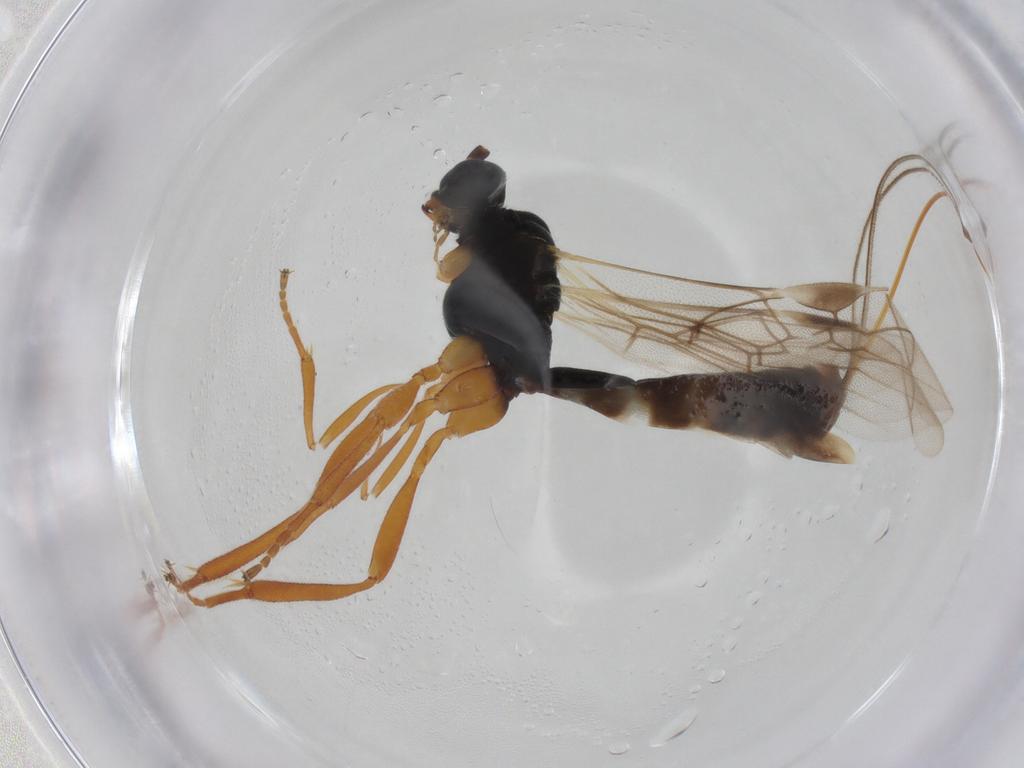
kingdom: Animalia
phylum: Arthropoda
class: Insecta
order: Hymenoptera
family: Braconidae
